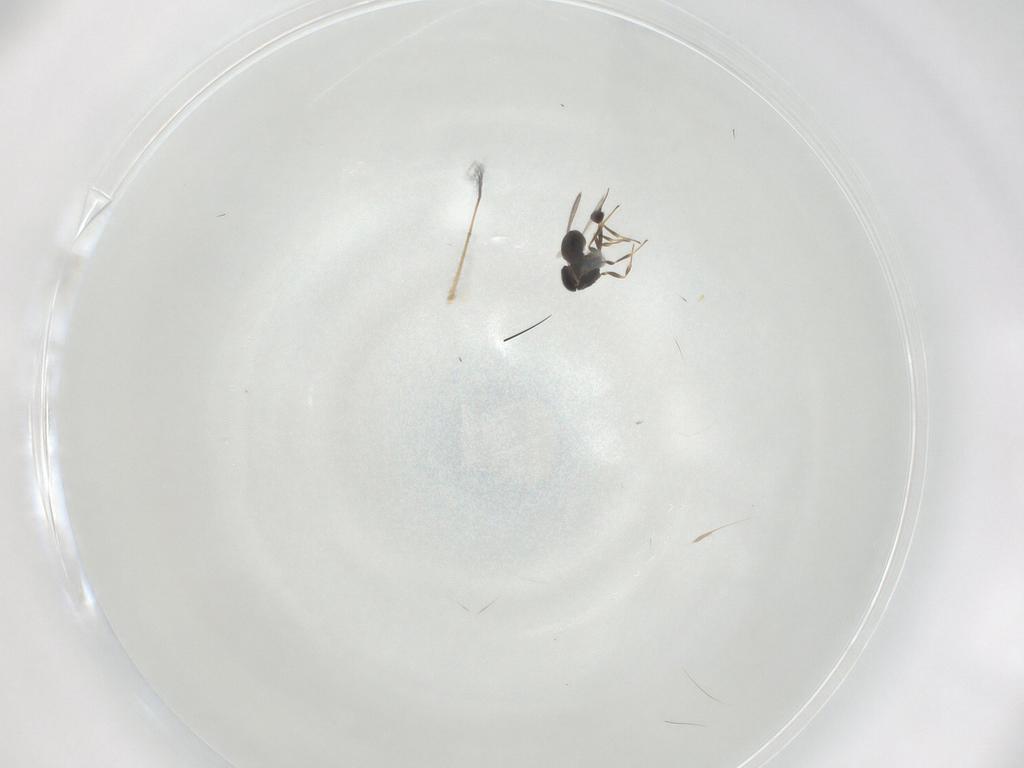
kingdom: Animalia
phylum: Arthropoda
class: Insecta
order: Hymenoptera
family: Scelionidae
